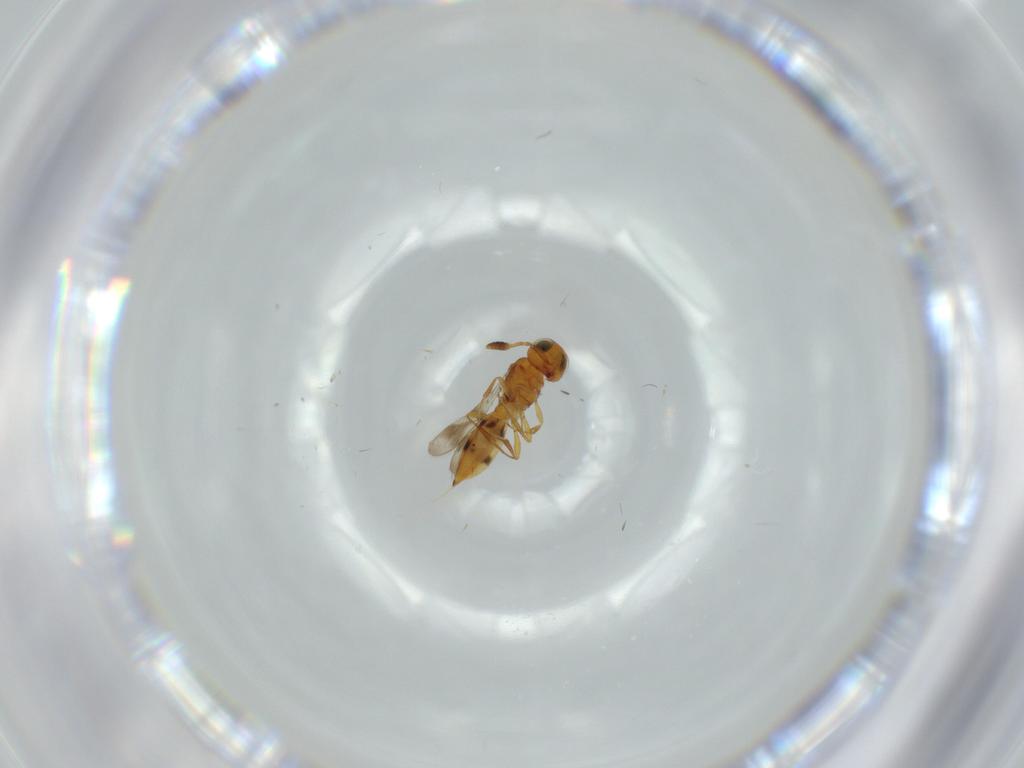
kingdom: Animalia
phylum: Arthropoda
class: Insecta
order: Hymenoptera
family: Scelionidae
